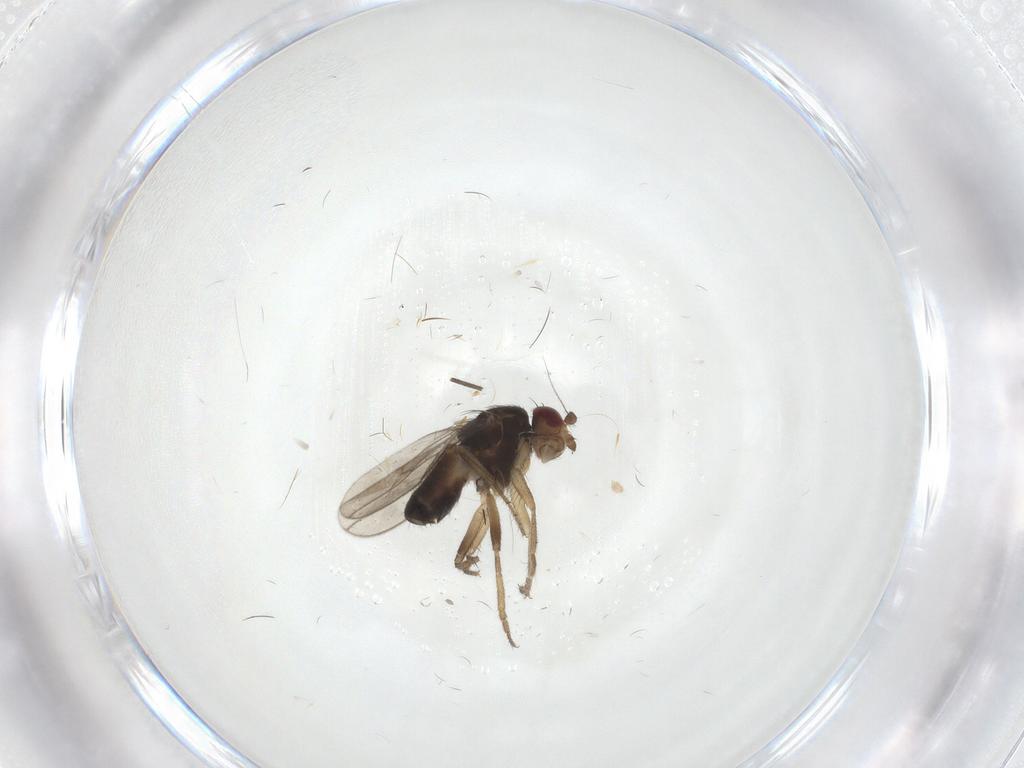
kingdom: Animalia
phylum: Arthropoda
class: Insecta
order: Diptera
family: Sphaeroceridae
